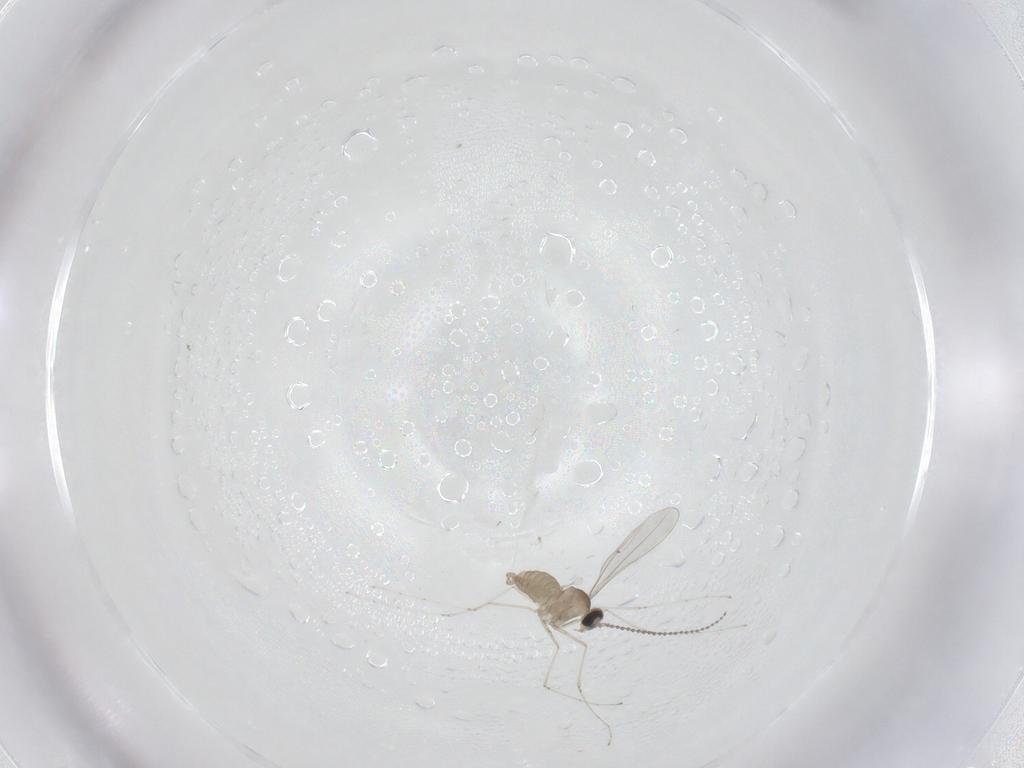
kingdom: Animalia
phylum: Arthropoda
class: Insecta
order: Diptera
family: Cecidomyiidae
